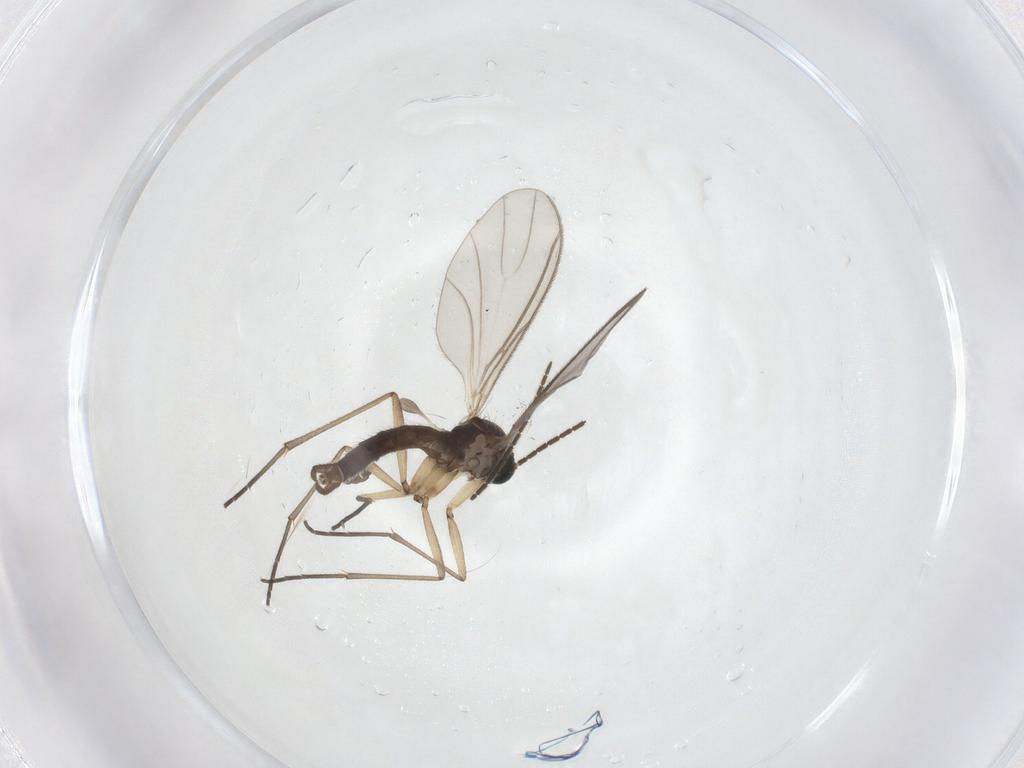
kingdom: Animalia
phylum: Arthropoda
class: Insecta
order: Diptera
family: Sciaridae
